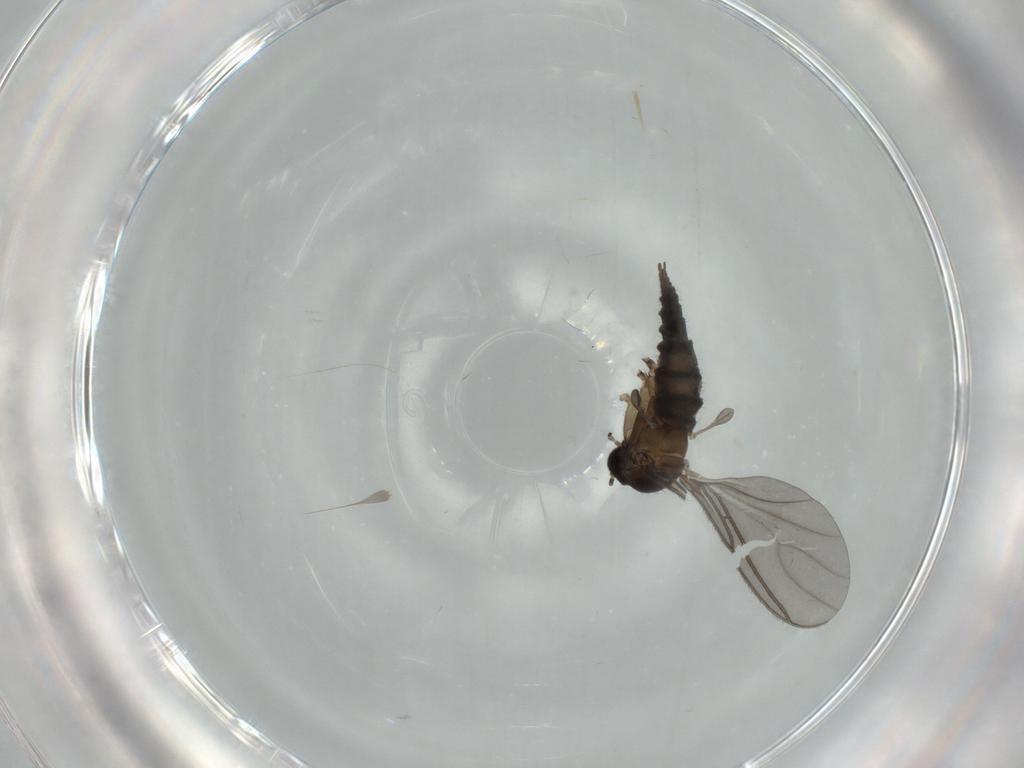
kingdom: Animalia
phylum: Arthropoda
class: Insecta
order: Diptera
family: Sciaridae
